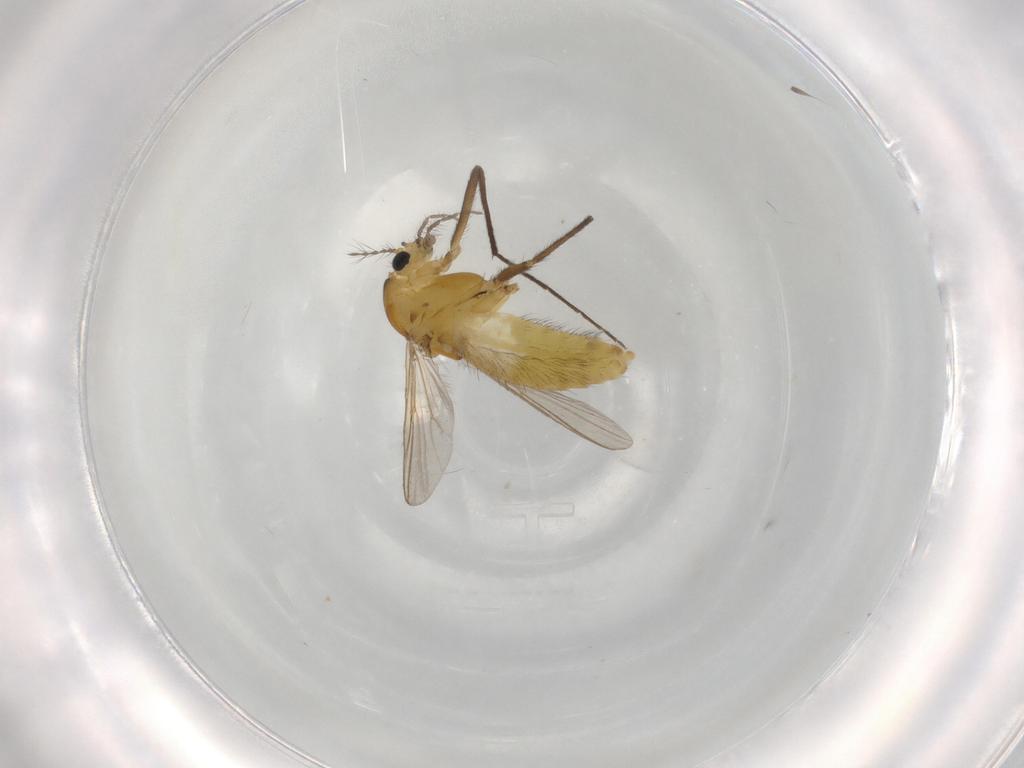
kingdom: Animalia
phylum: Arthropoda
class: Insecta
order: Diptera
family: Chironomidae
